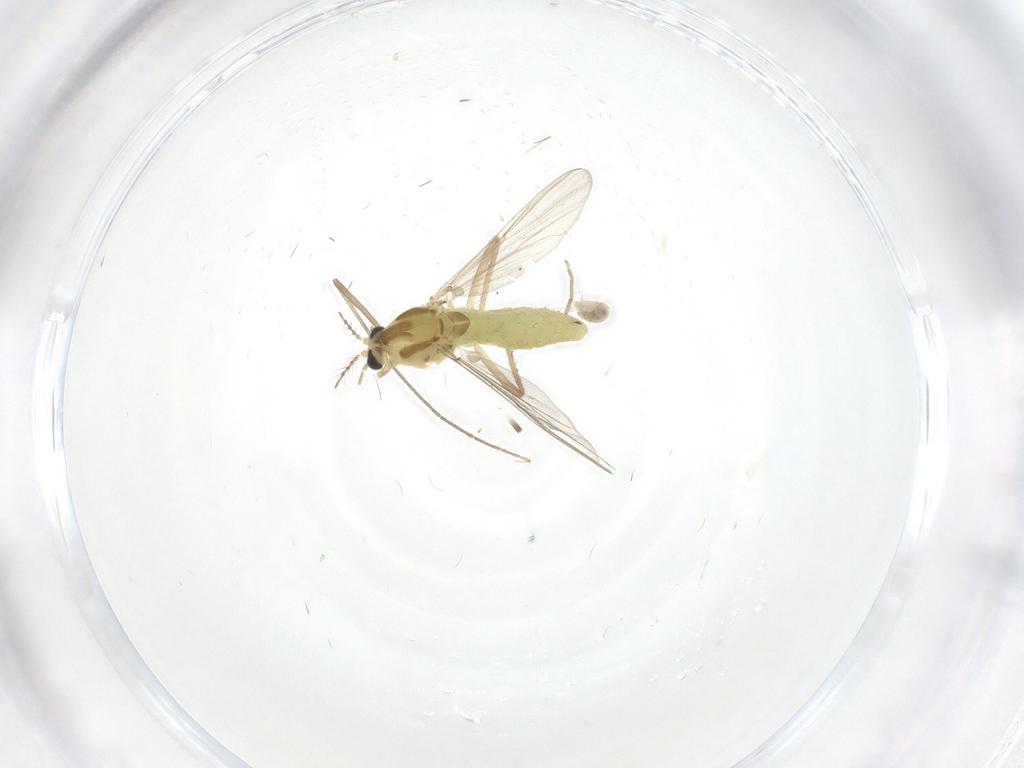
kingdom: Animalia
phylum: Arthropoda
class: Insecta
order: Diptera
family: Chironomidae
